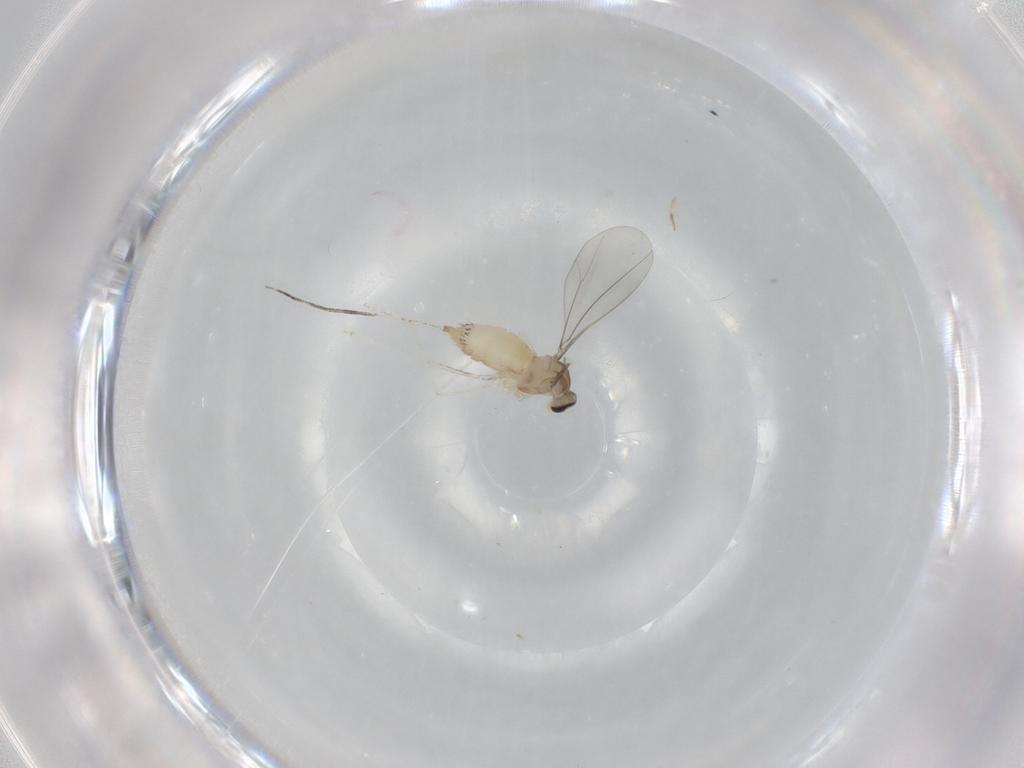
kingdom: Animalia
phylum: Arthropoda
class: Insecta
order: Diptera
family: Cecidomyiidae
